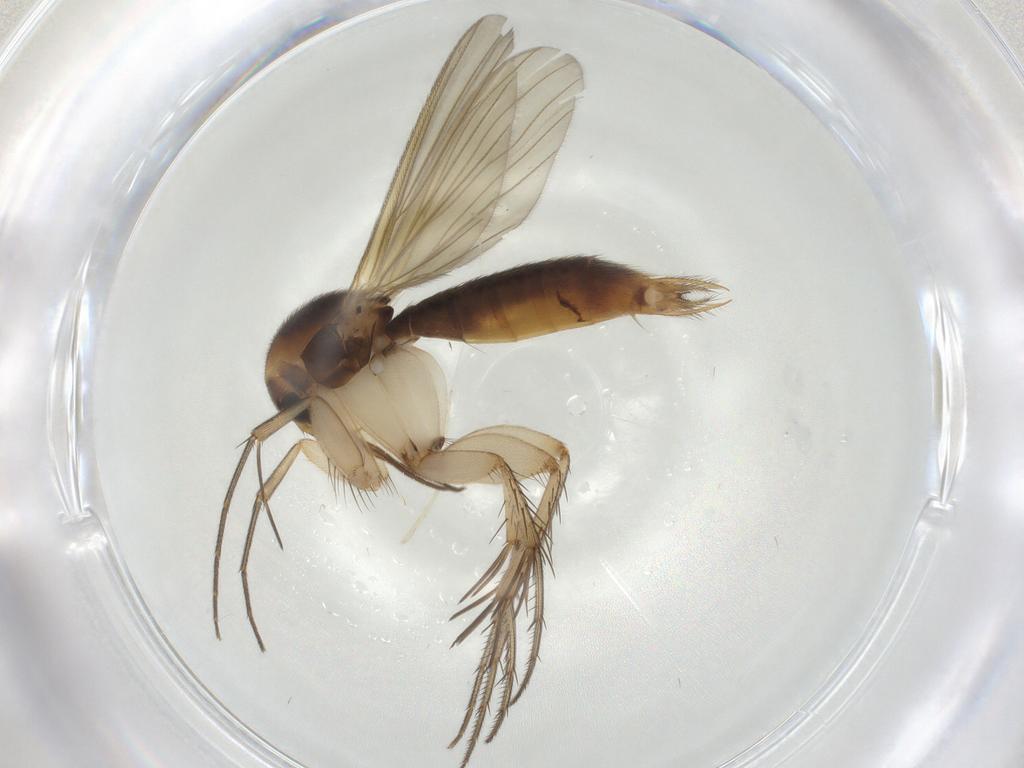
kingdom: Animalia
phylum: Arthropoda
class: Insecta
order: Diptera
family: Mycetophilidae
